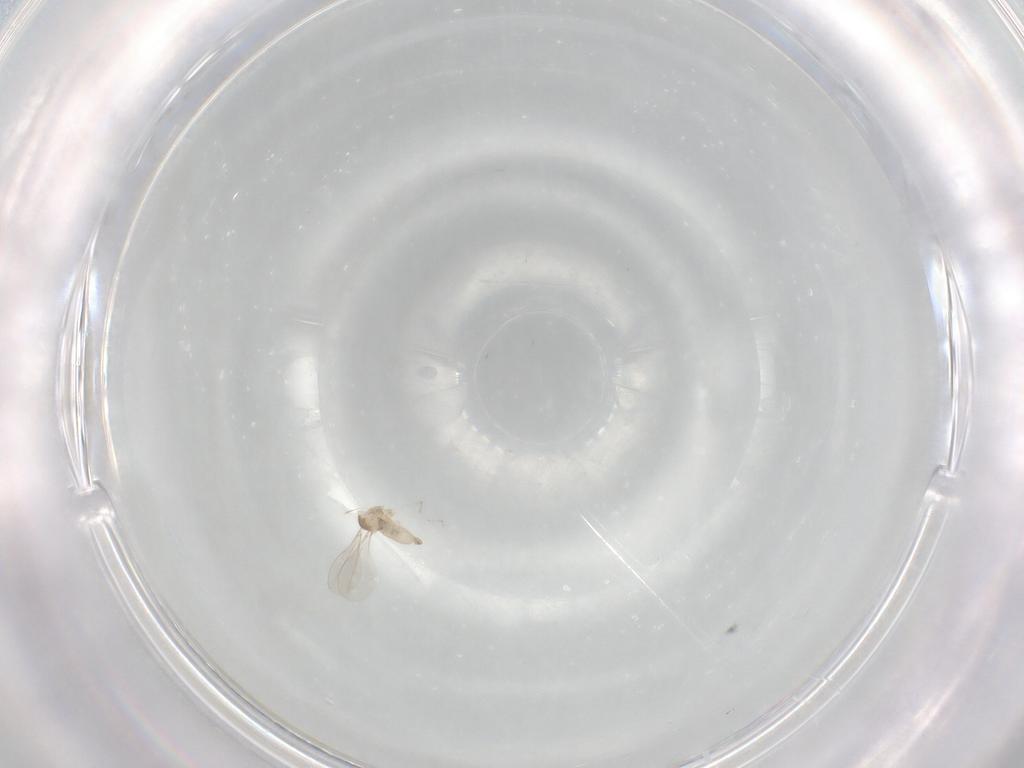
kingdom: Animalia
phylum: Arthropoda
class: Insecta
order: Diptera
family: Cecidomyiidae
